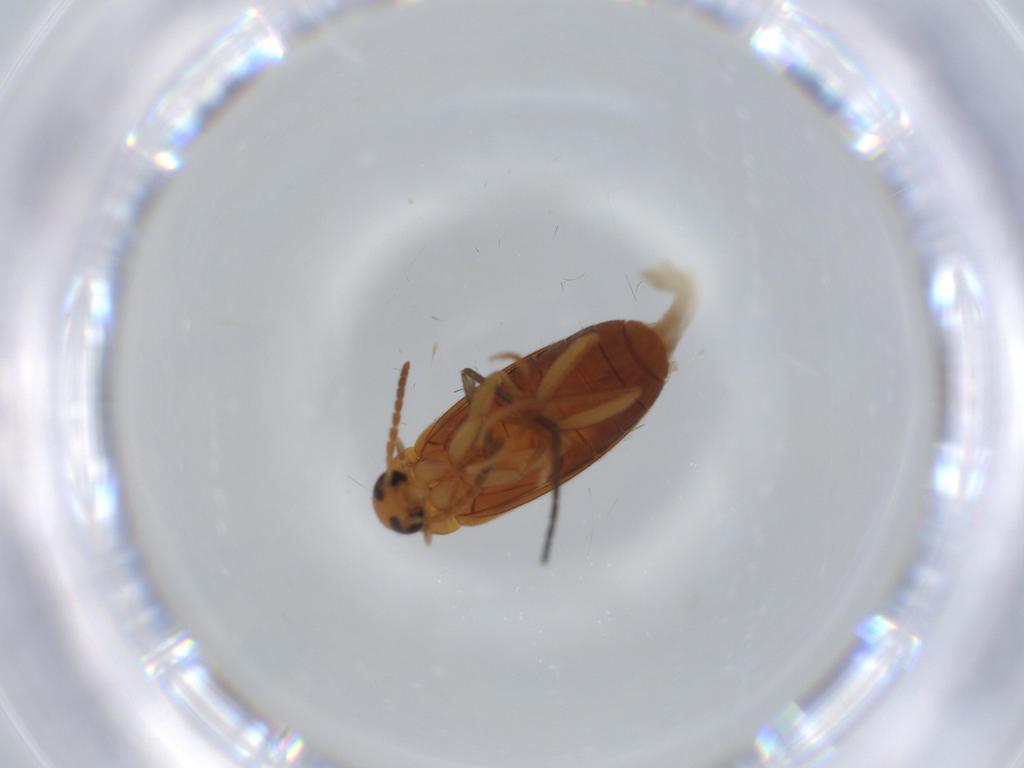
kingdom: Animalia
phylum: Arthropoda
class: Insecta
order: Coleoptera
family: Scraptiidae
